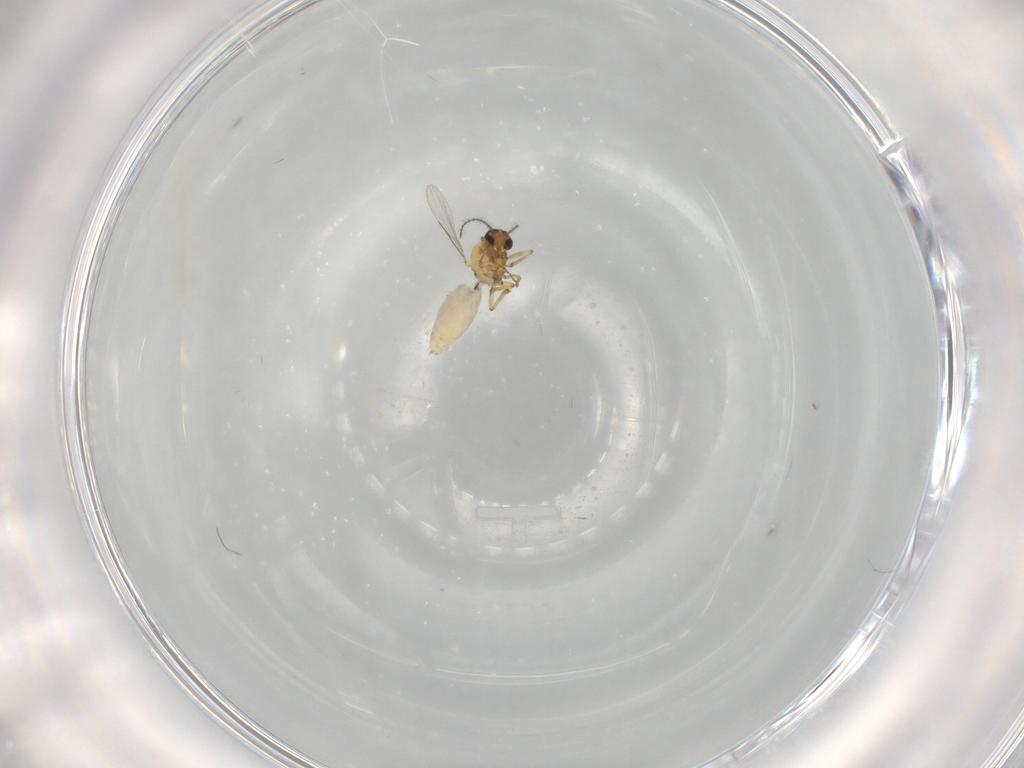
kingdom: Animalia
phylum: Arthropoda
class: Insecta
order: Diptera
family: Ceratopogonidae
